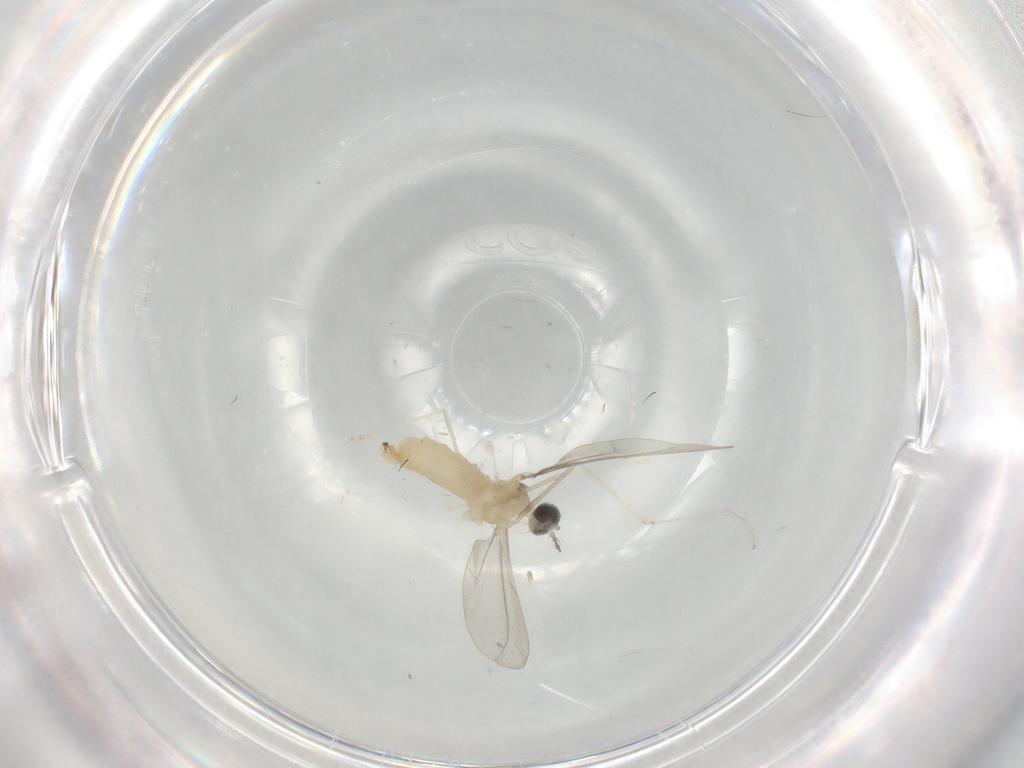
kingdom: Animalia
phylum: Arthropoda
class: Insecta
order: Diptera
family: Cecidomyiidae
